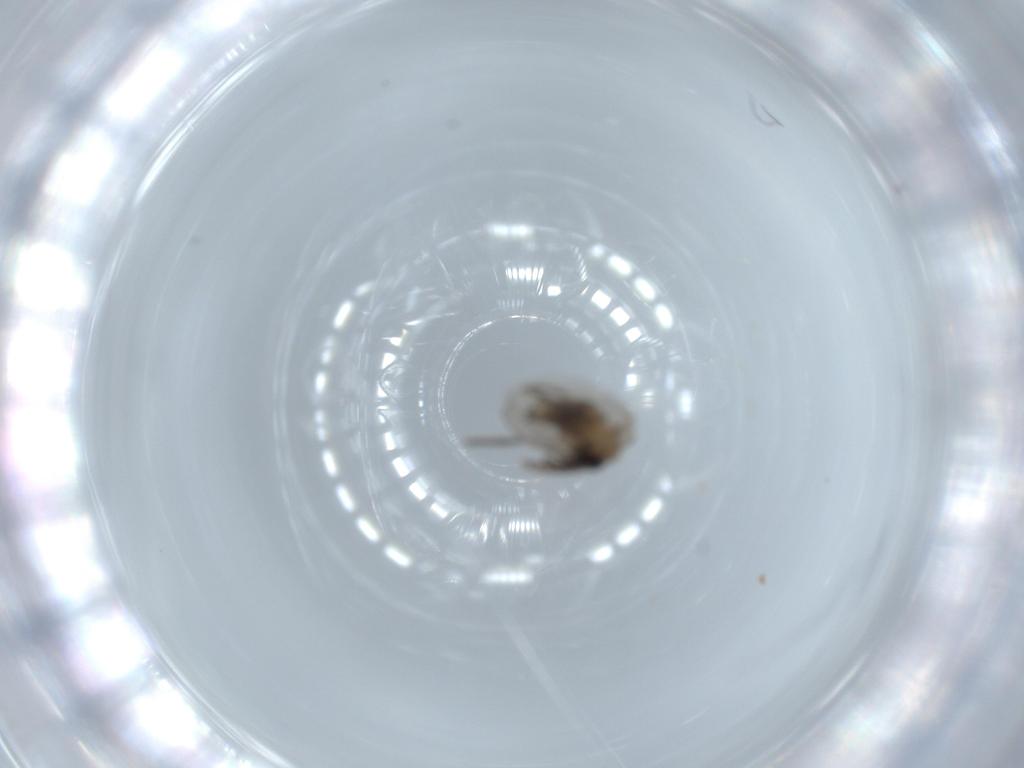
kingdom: Animalia
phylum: Arthropoda
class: Insecta
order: Diptera
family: Psychodidae
